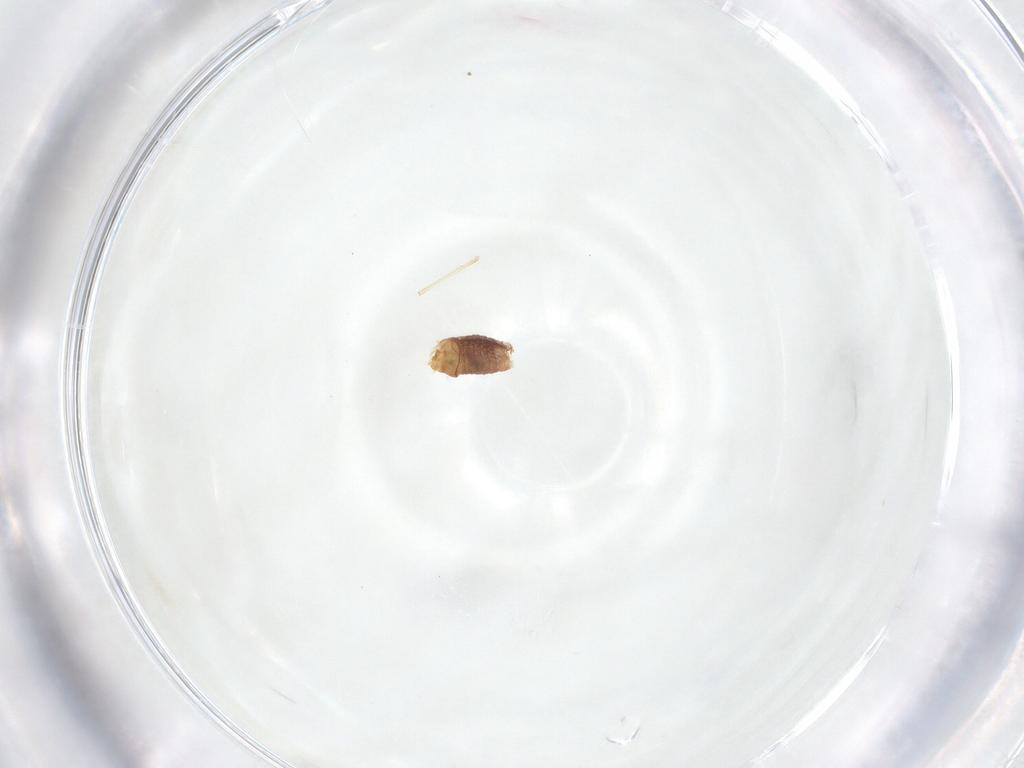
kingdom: Animalia
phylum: Arthropoda
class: Insecta
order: Psocodea
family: Lachesillidae
